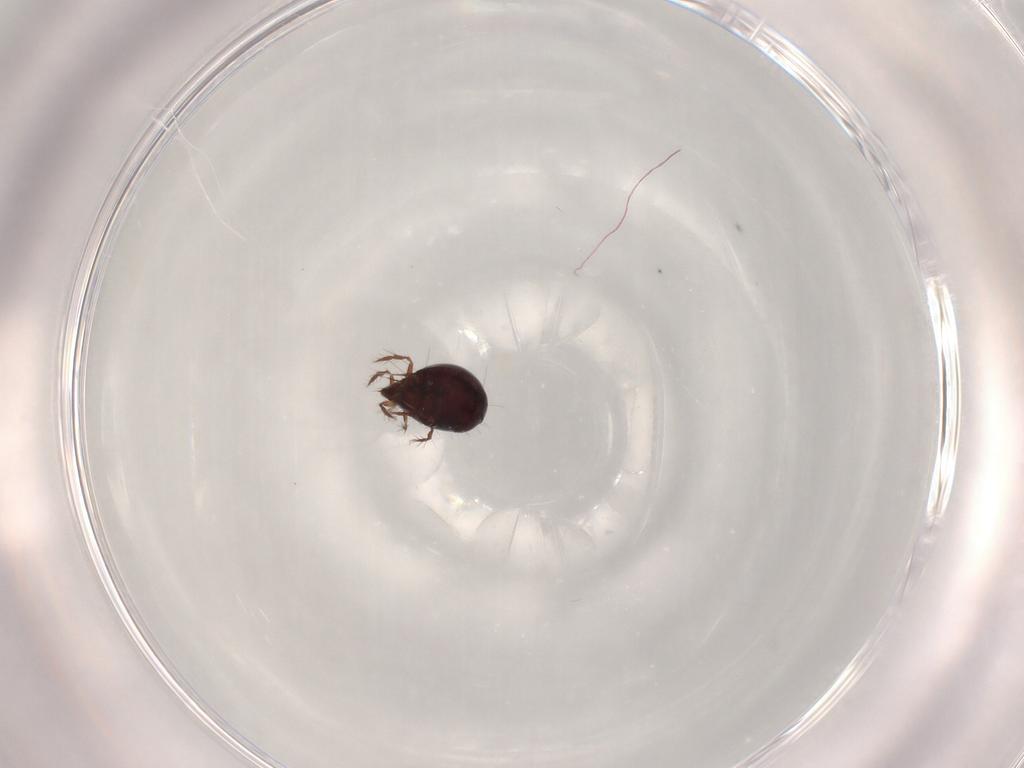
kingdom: Animalia
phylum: Arthropoda
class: Arachnida
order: Sarcoptiformes
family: Ceratoppiidae
